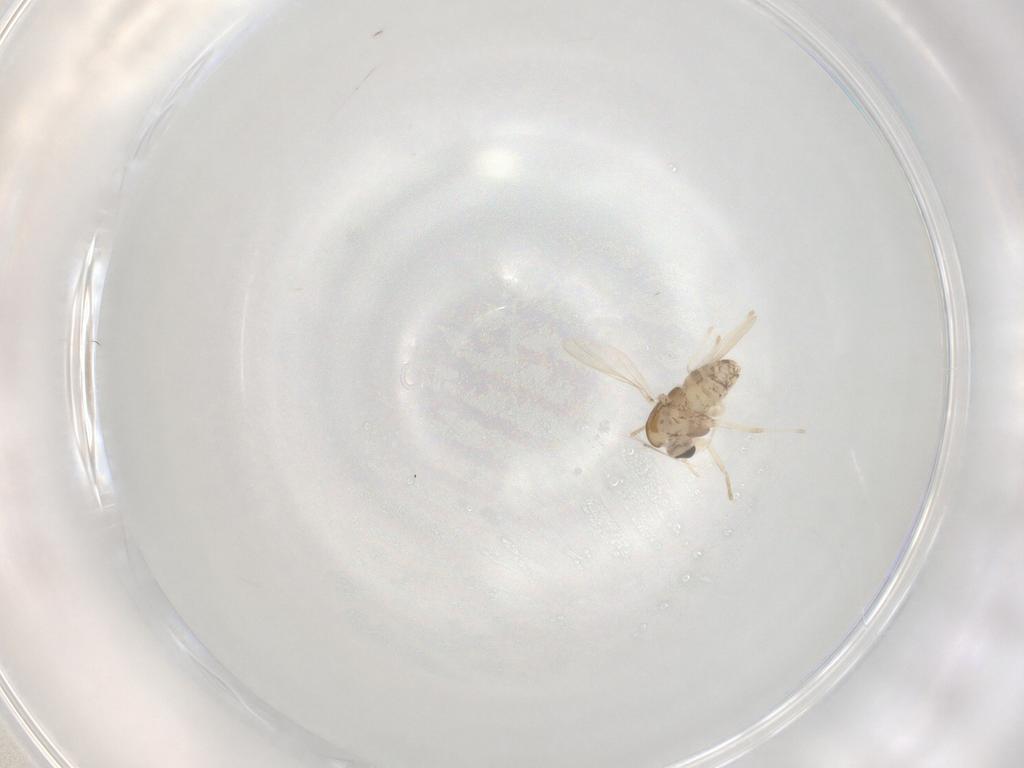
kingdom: Animalia
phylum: Arthropoda
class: Insecta
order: Diptera
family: Chironomidae
